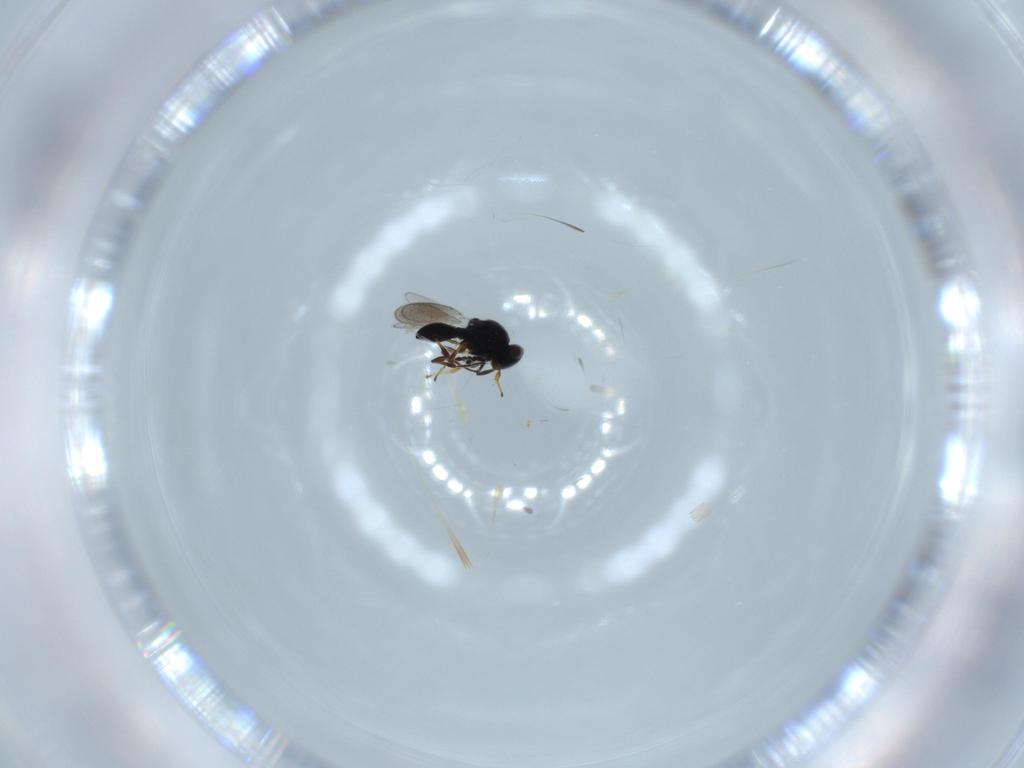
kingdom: Animalia
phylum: Arthropoda
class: Insecta
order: Hymenoptera
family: Platygastridae
